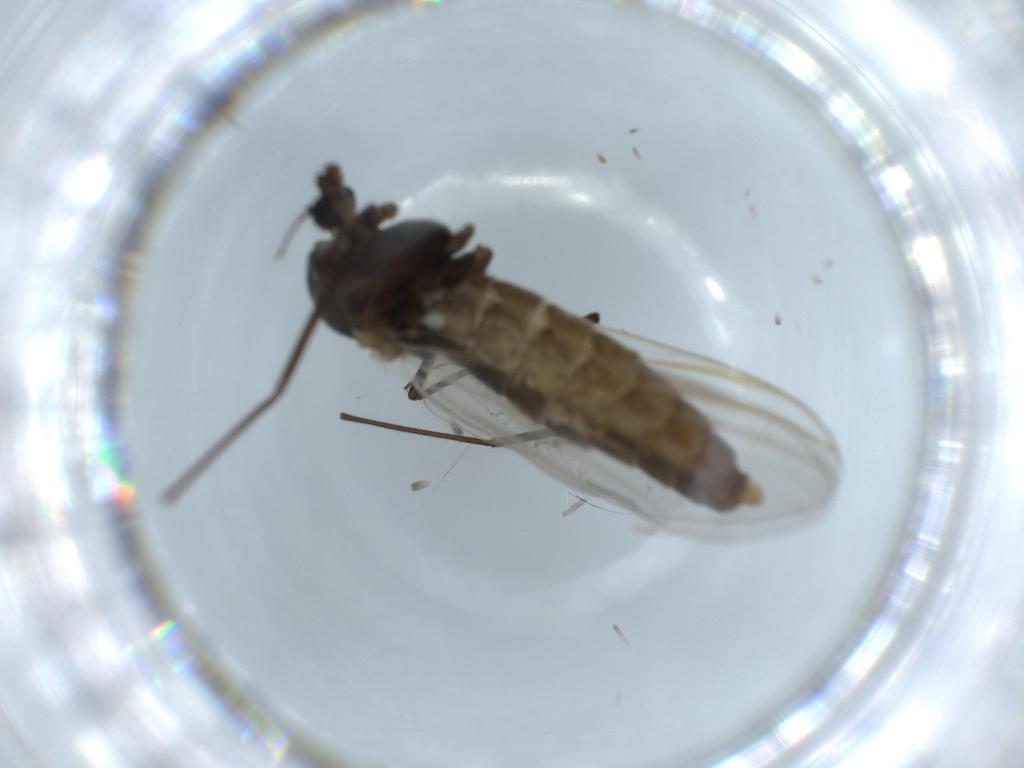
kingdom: Animalia
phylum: Arthropoda
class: Insecta
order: Diptera
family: Chironomidae
